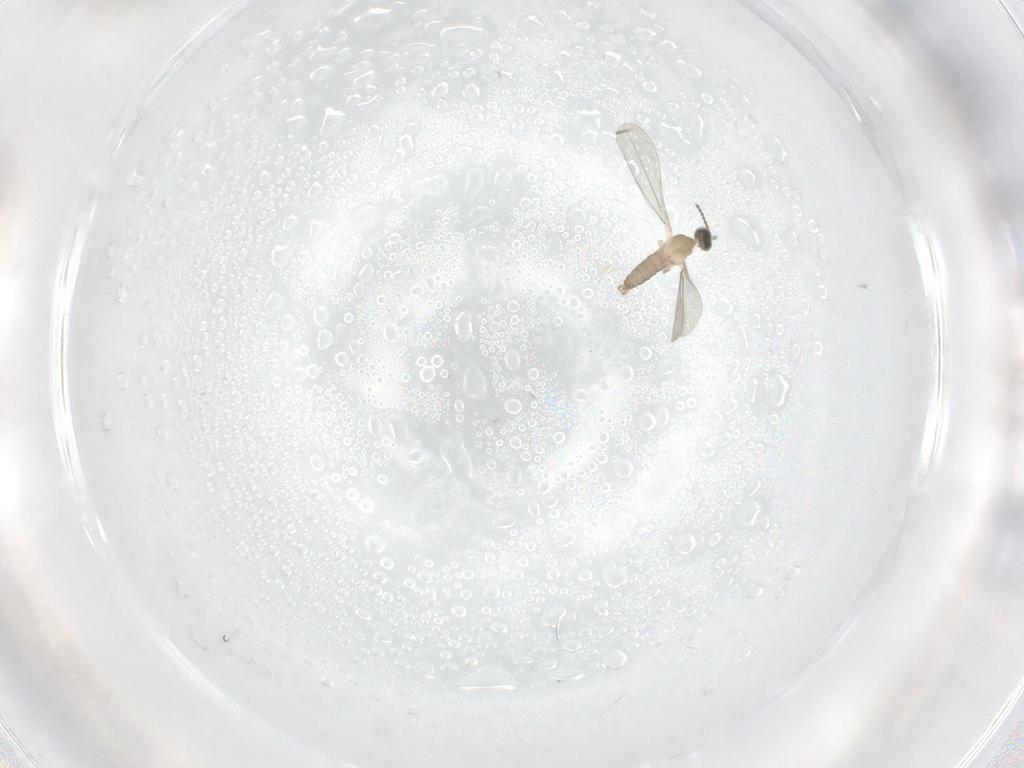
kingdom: Animalia
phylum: Arthropoda
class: Insecta
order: Diptera
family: Cecidomyiidae
